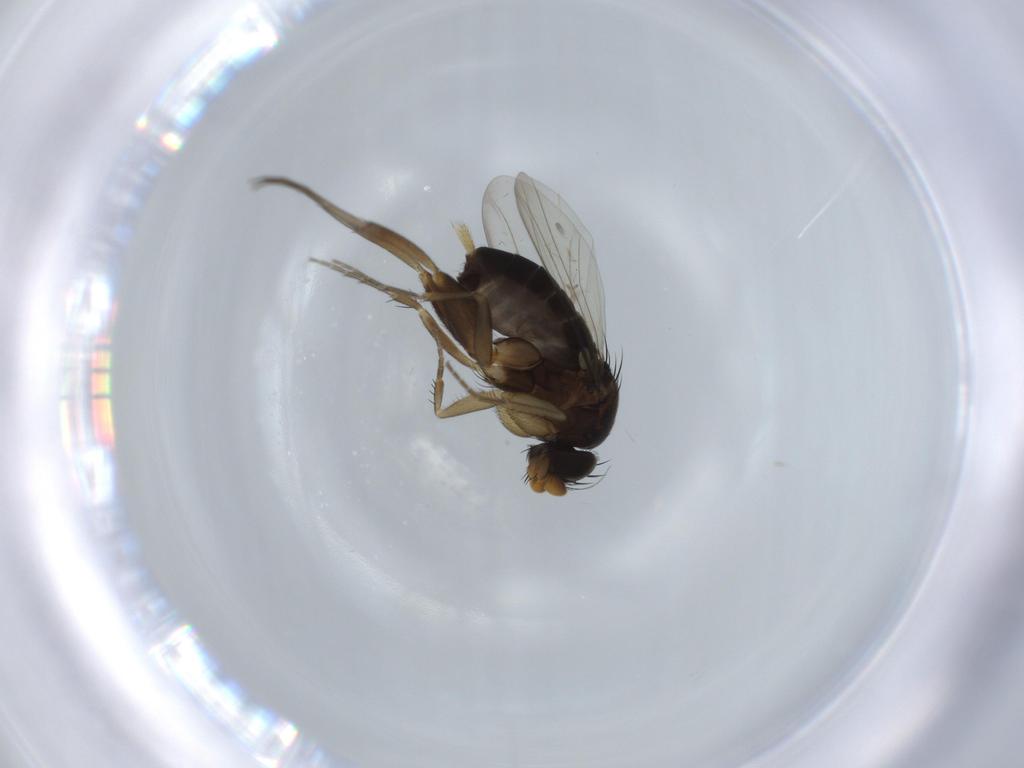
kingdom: Animalia
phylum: Arthropoda
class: Insecta
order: Diptera
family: Phoridae
